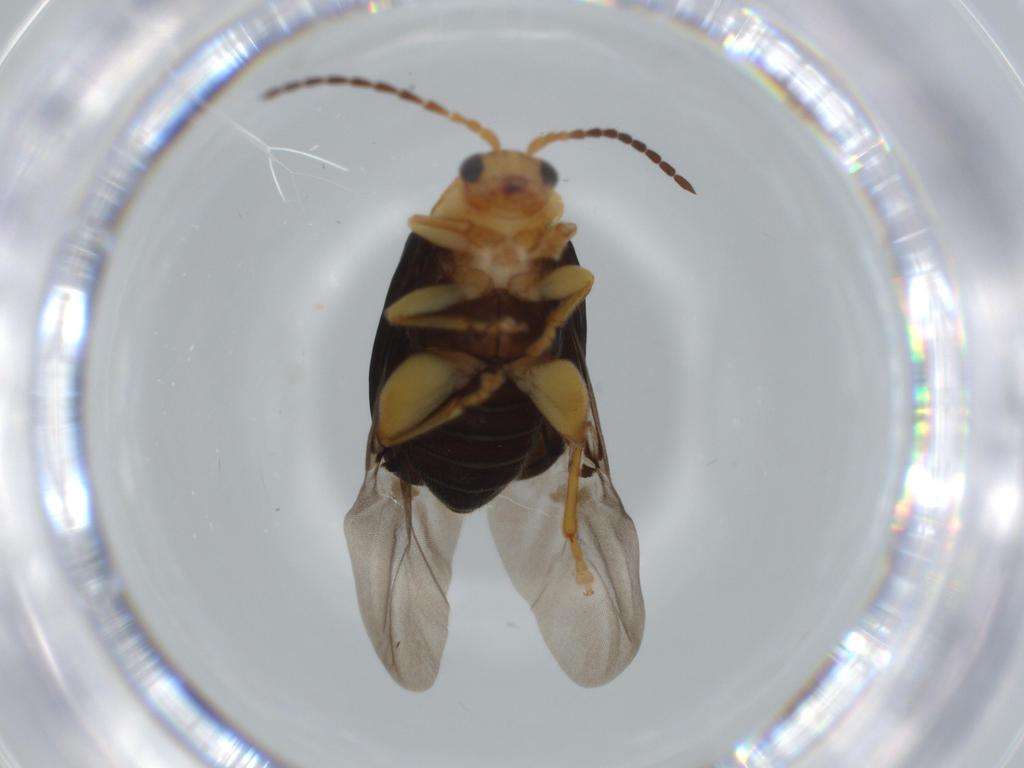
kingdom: Animalia
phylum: Arthropoda
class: Insecta
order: Coleoptera
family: Chrysomelidae
